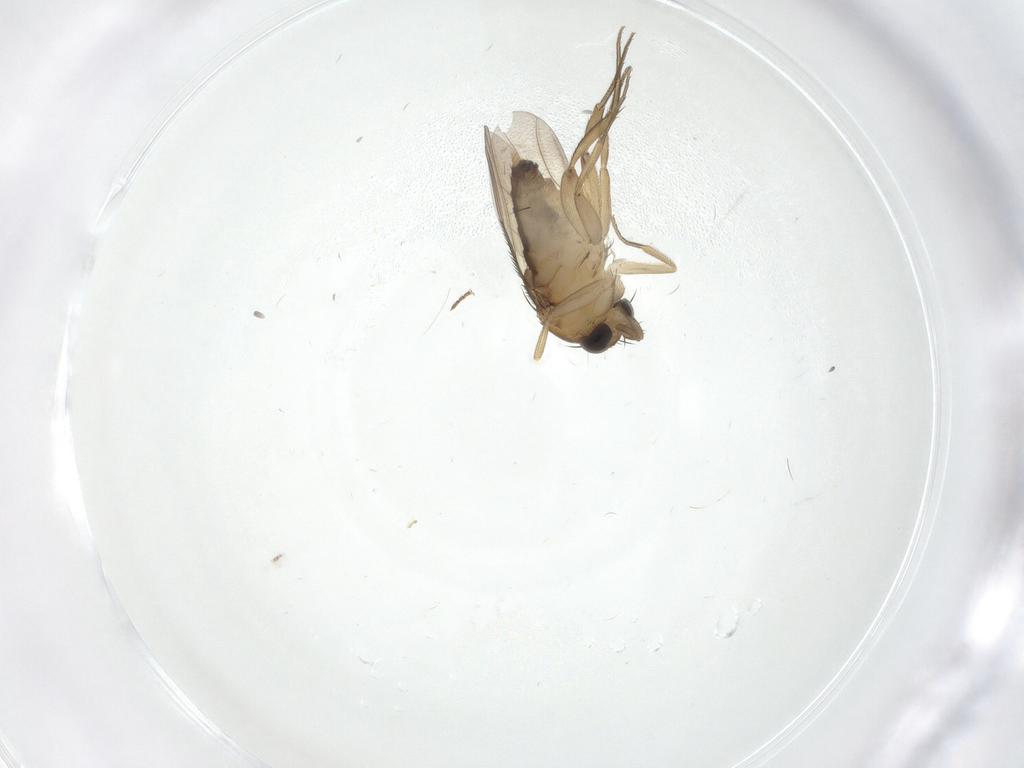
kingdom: Animalia
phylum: Arthropoda
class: Insecta
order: Diptera
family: Phoridae
